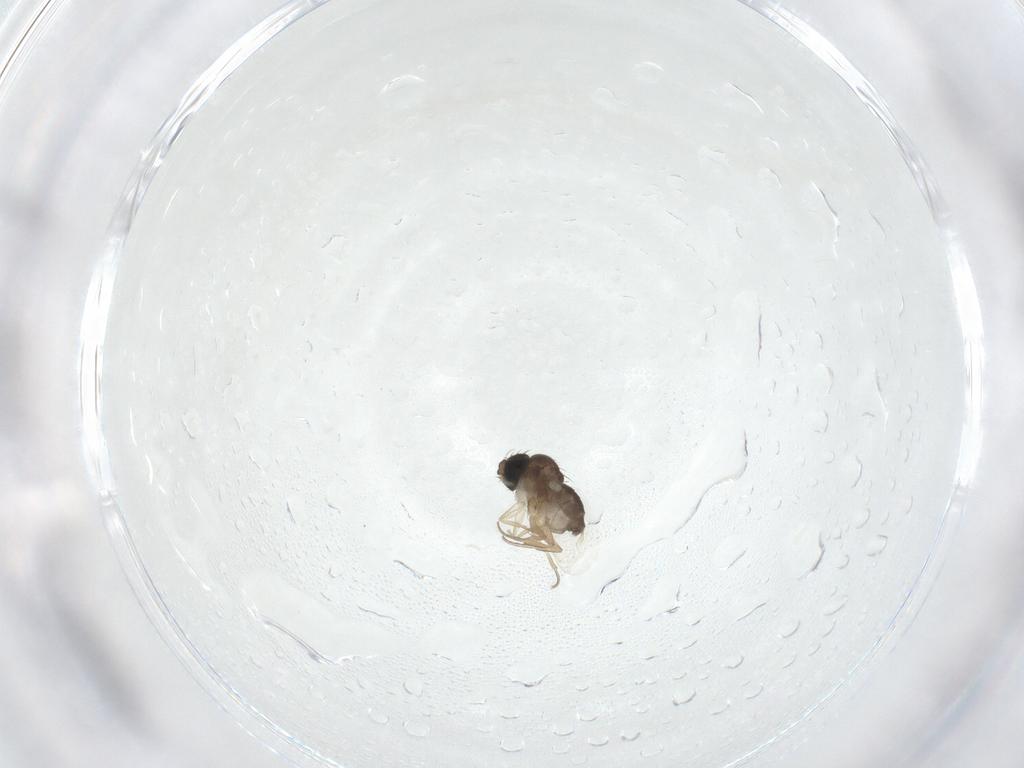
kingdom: Animalia
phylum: Arthropoda
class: Insecta
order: Diptera
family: Phoridae
